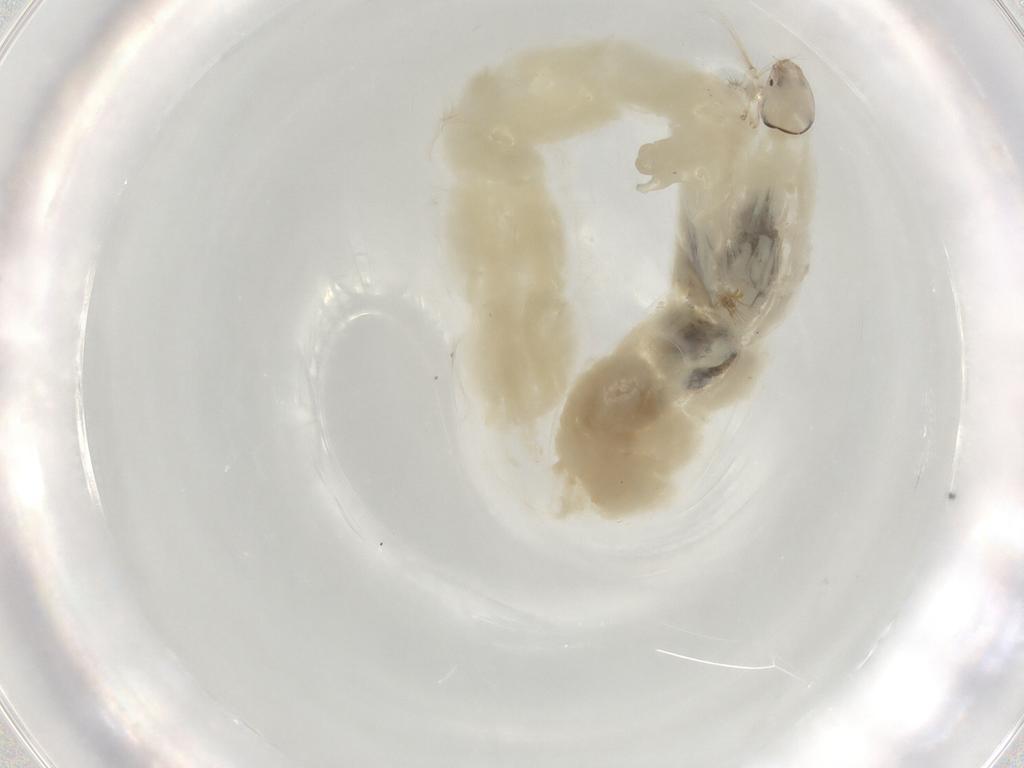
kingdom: Animalia
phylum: Arthropoda
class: Insecta
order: Diptera
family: Chironomidae
